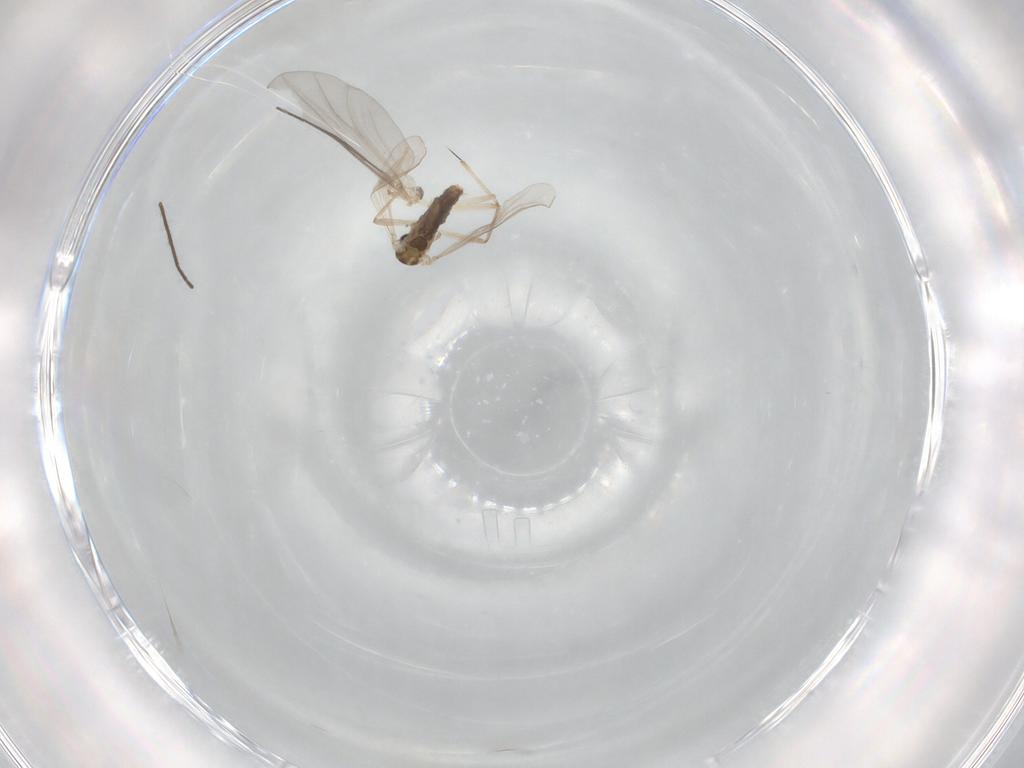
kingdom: Animalia
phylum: Arthropoda
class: Insecta
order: Diptera
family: Chironomidae
